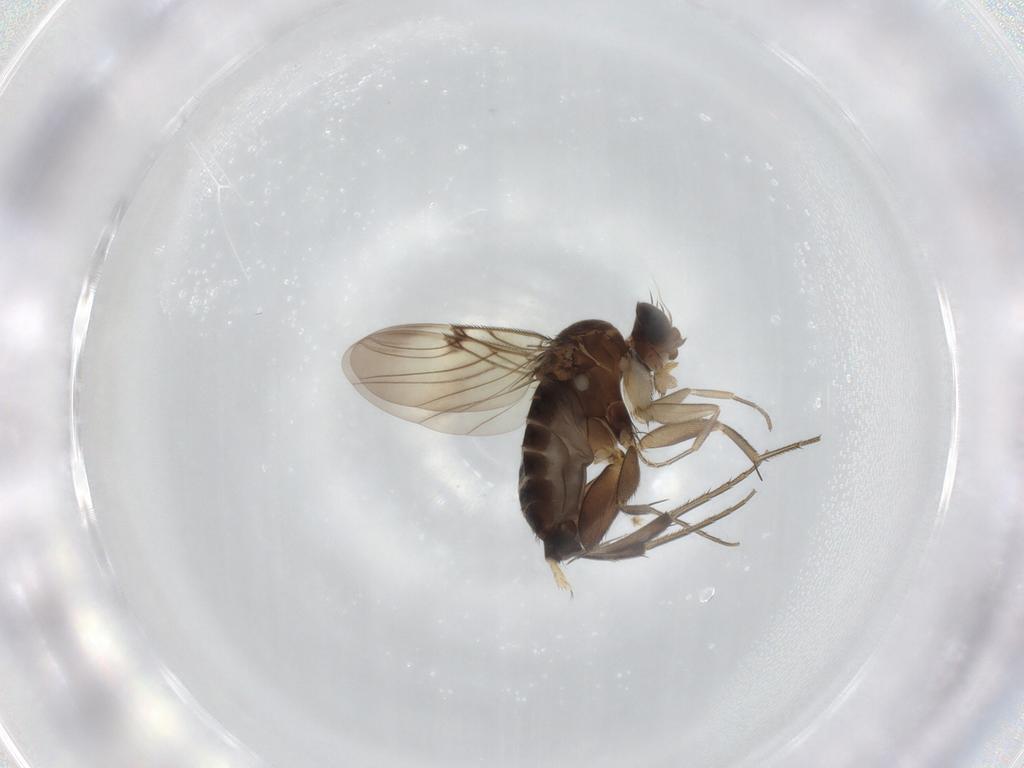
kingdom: Animalia
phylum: Arthropoda
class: Insecta
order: Diptera
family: Phoridae
